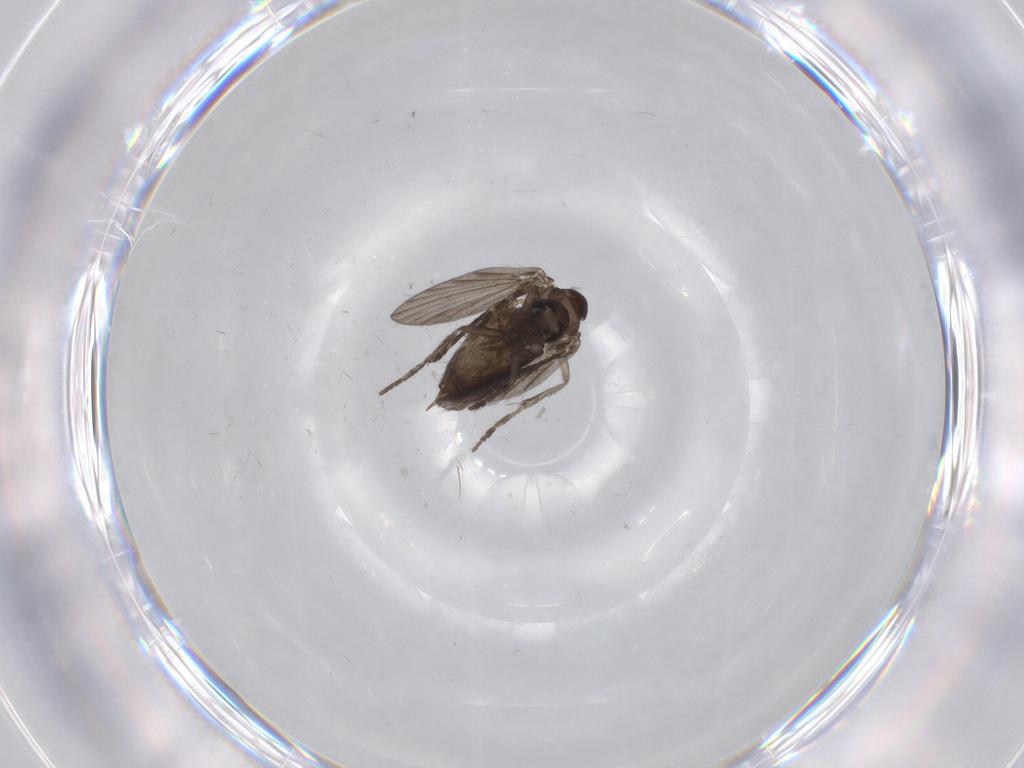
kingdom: Animalia
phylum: Arthropoda
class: Insecta
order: Diptera
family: Psychodidae
